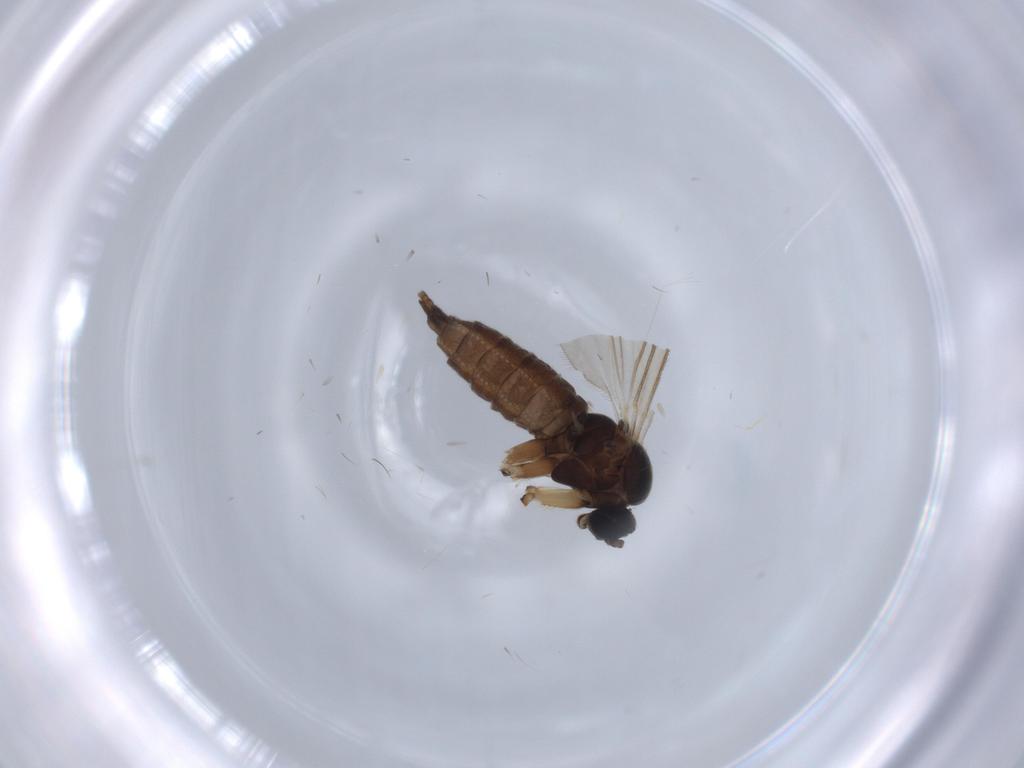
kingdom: Animalia
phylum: Arthropoda
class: Insecta
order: Diptera
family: Sciaridae
